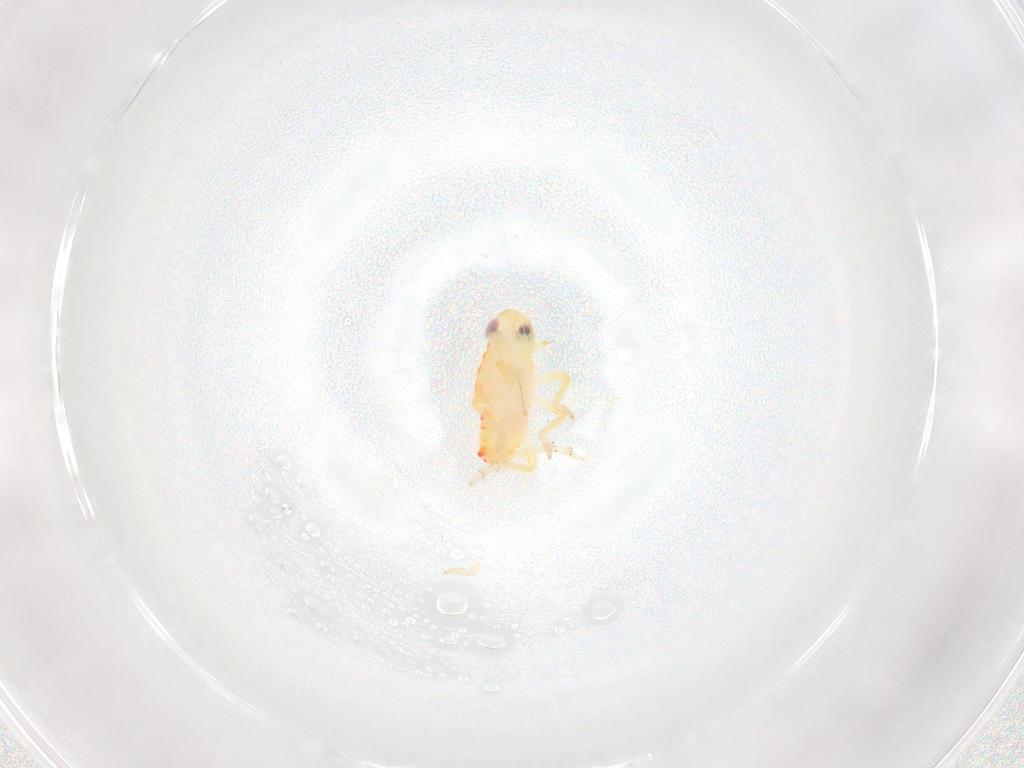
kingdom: Animalia
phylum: Arthropoda
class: Insecta
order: Hemiptera
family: Tropiduchidae
